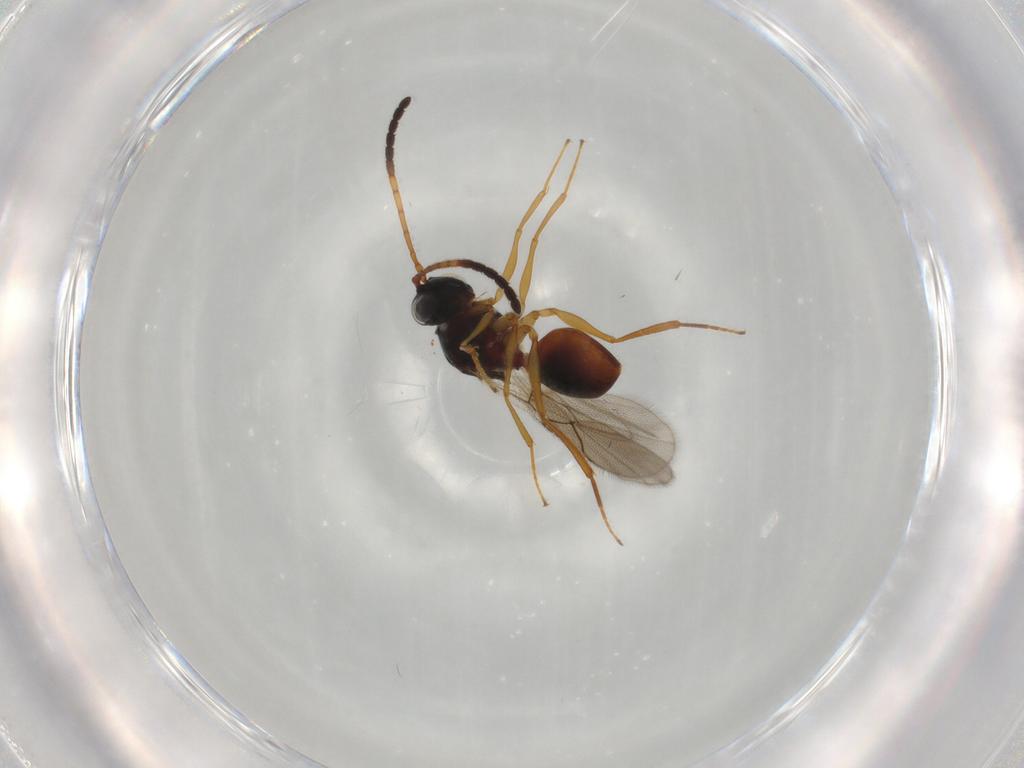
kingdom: Animalia
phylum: Arthropoda
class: Insecta
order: Hymenoptera
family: Figitidae
